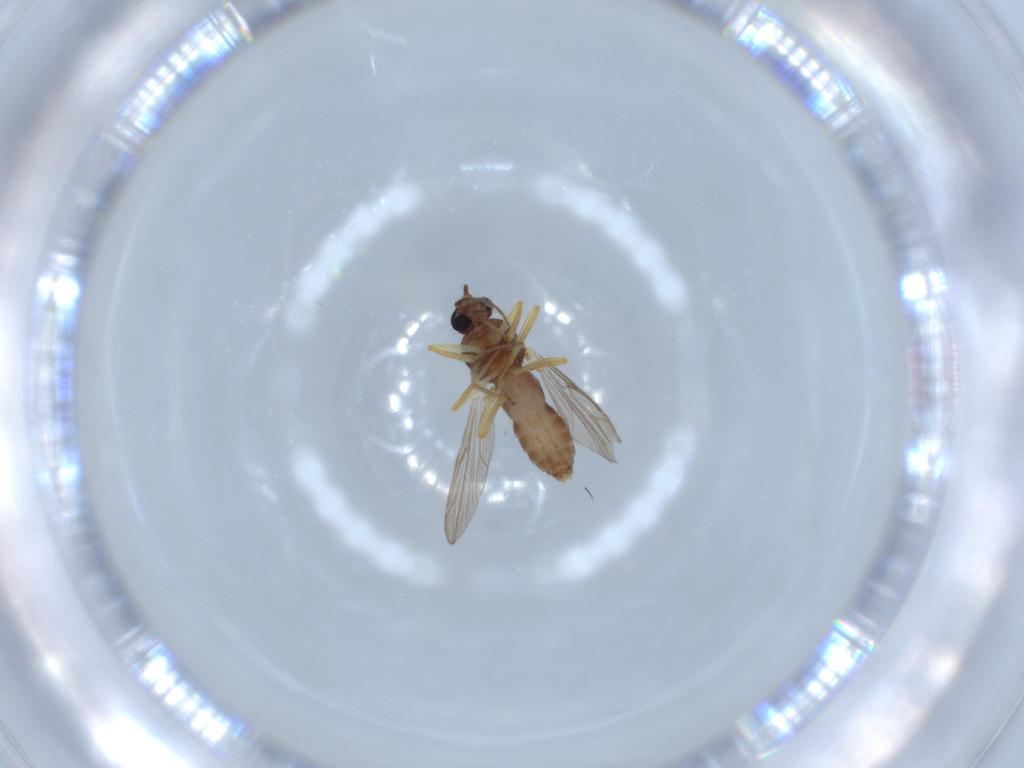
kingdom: Animalia
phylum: Arthropoda
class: Insecta
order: Diptera
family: Ceratopogonidae
